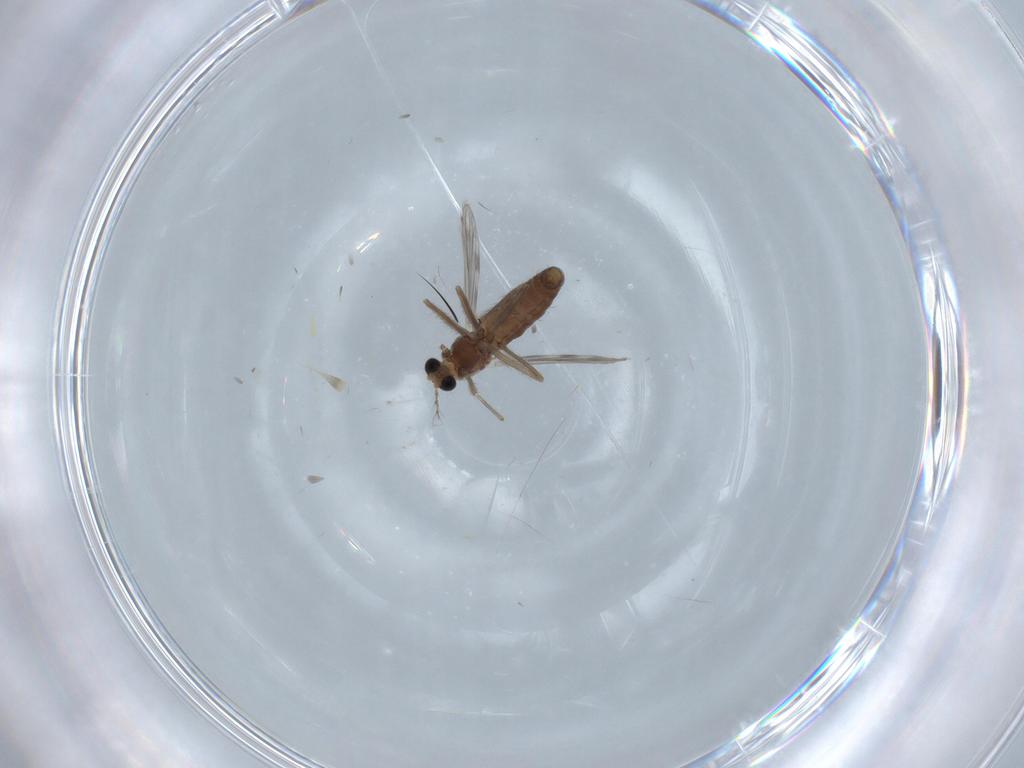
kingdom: Animalia
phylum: Arthropoda
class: Insecta
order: Diptera
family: Chironomidae
